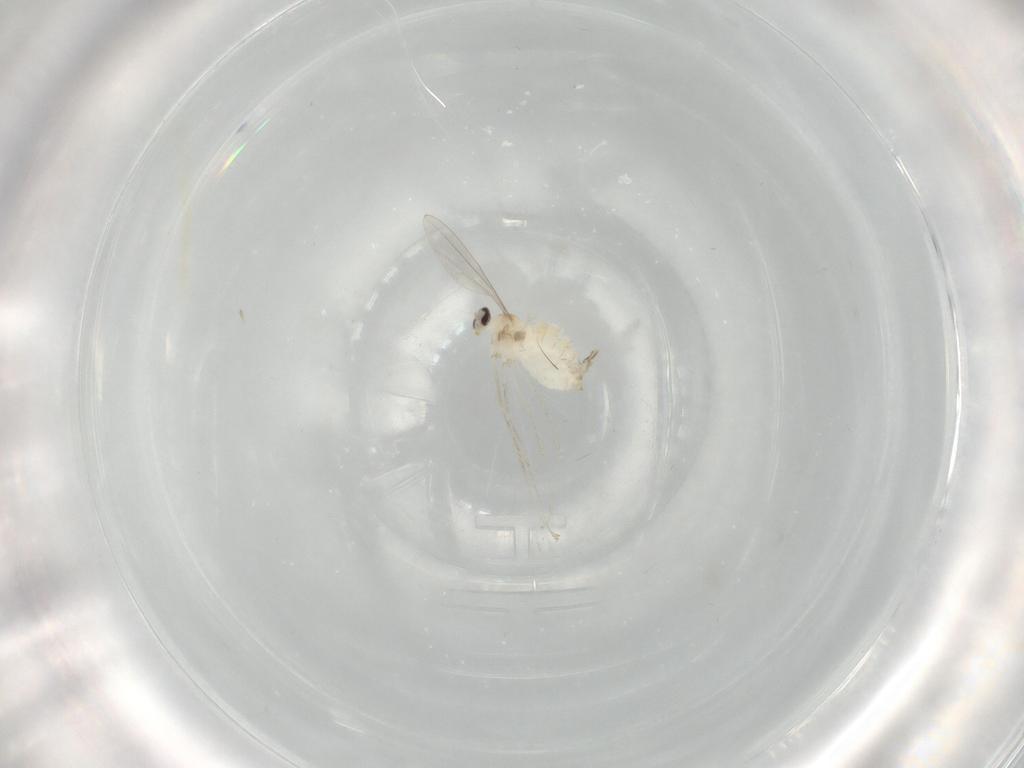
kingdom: Animalia
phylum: Arthropoda
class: Insecta
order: Diptera
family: Cecidomyiidae
